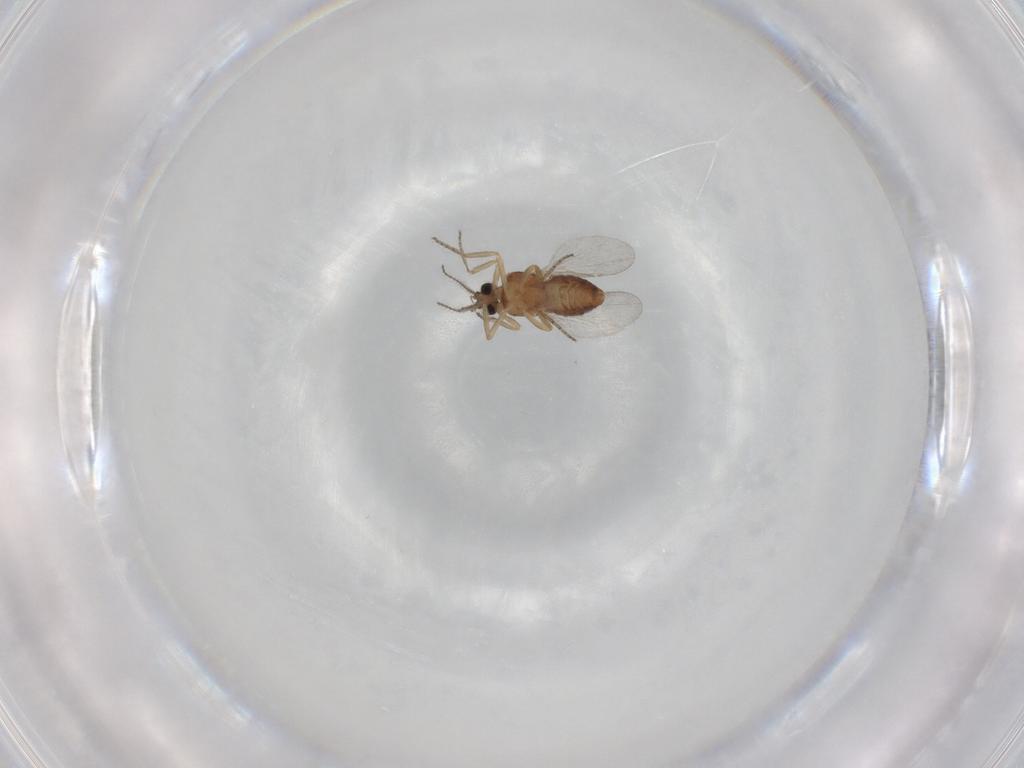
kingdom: Animalia
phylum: Arthropoda
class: Insecta
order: Diptera
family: Ceratopogonidae
